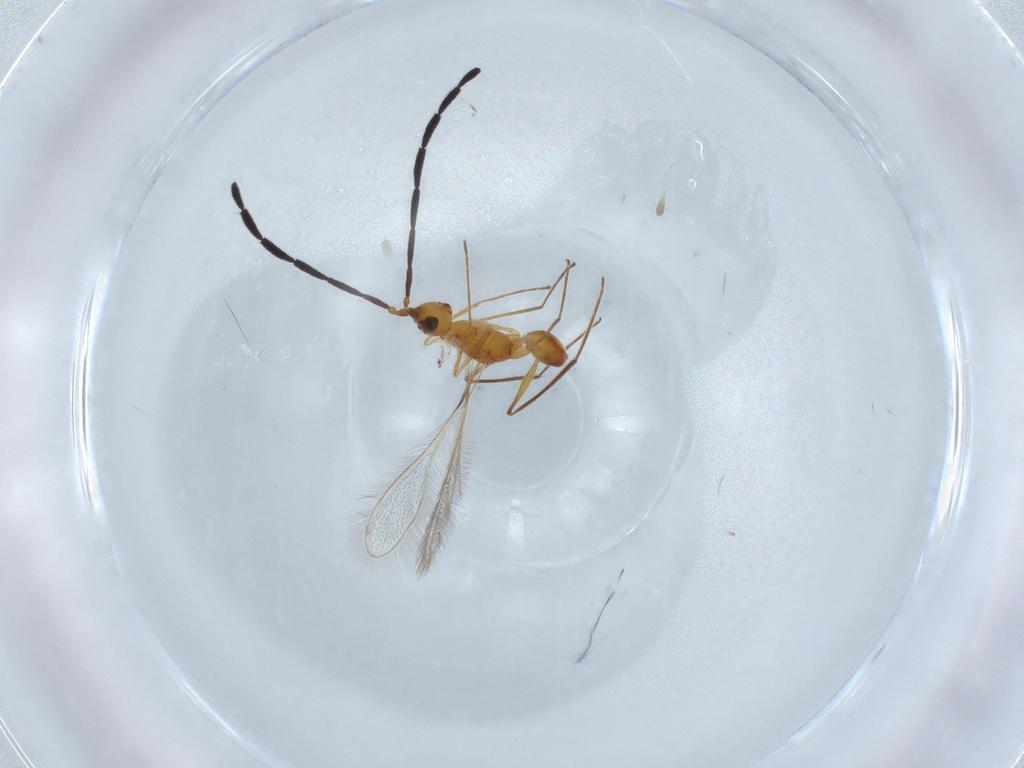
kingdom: Animalia
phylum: Arthropoda
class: Insecta
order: Hymenoptera
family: Mymaridae
